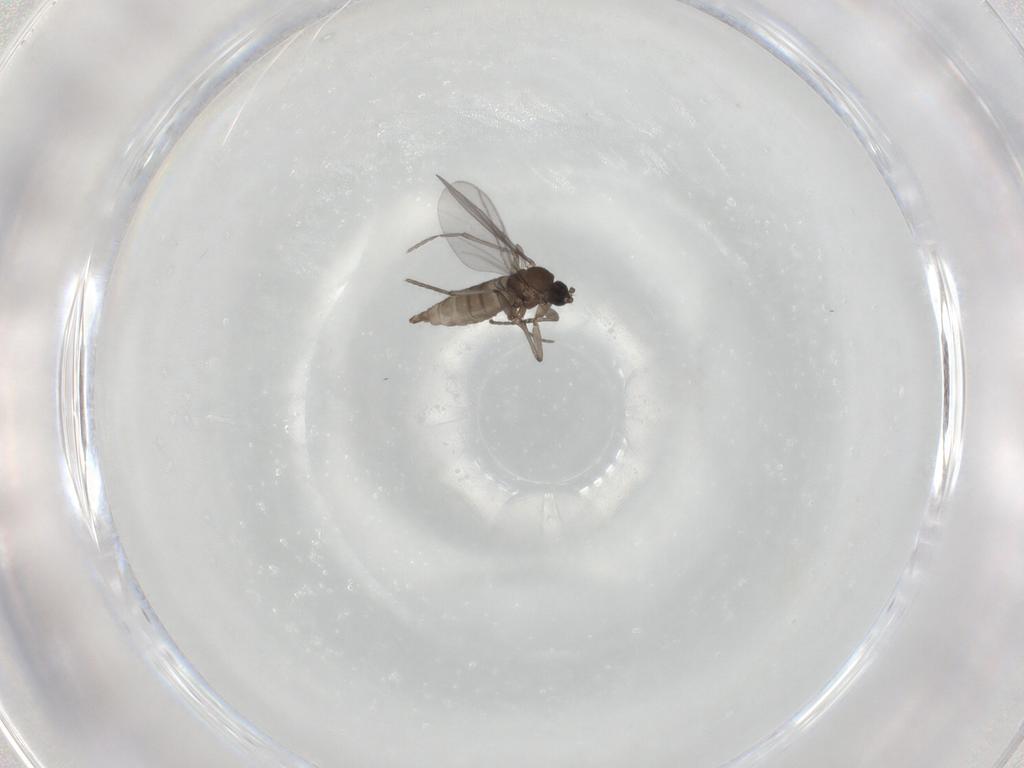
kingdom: Animalia
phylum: Arthropoda
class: Insecta
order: Diptera
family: Sciaridae
